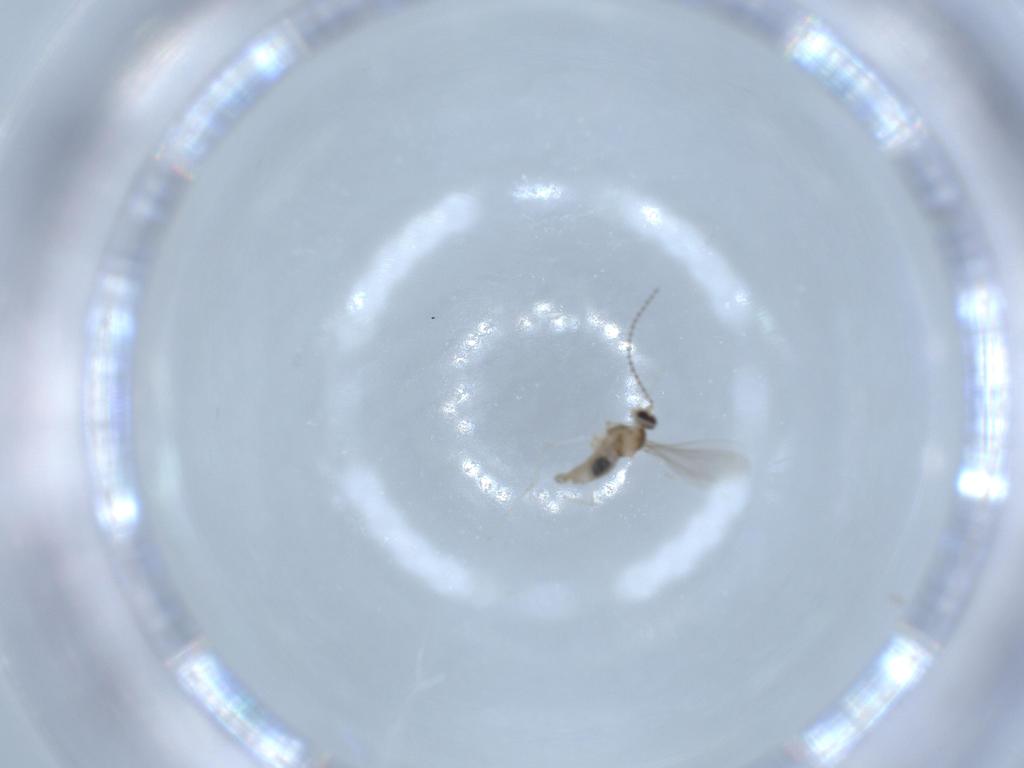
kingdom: Animalia
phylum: Arthropoda
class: Insecta
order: Diptera
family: Cecidomyiidae
